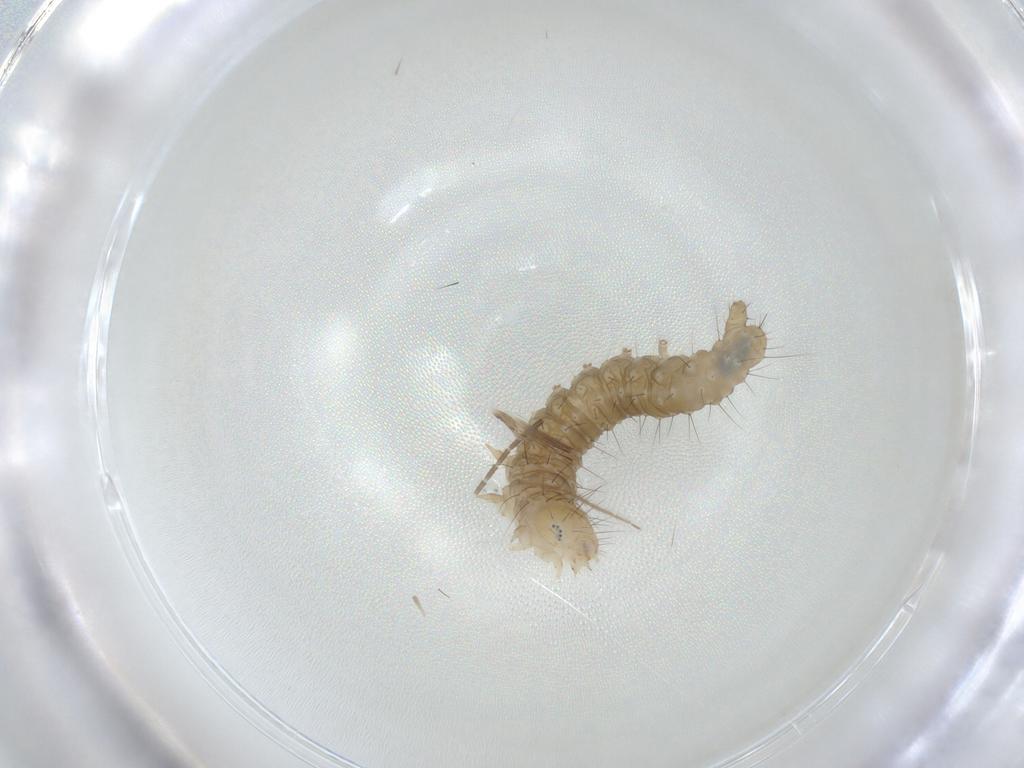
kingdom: Animalia
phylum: Arthropoda
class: Insecta
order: Lepidoptera
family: Gelechiidae
